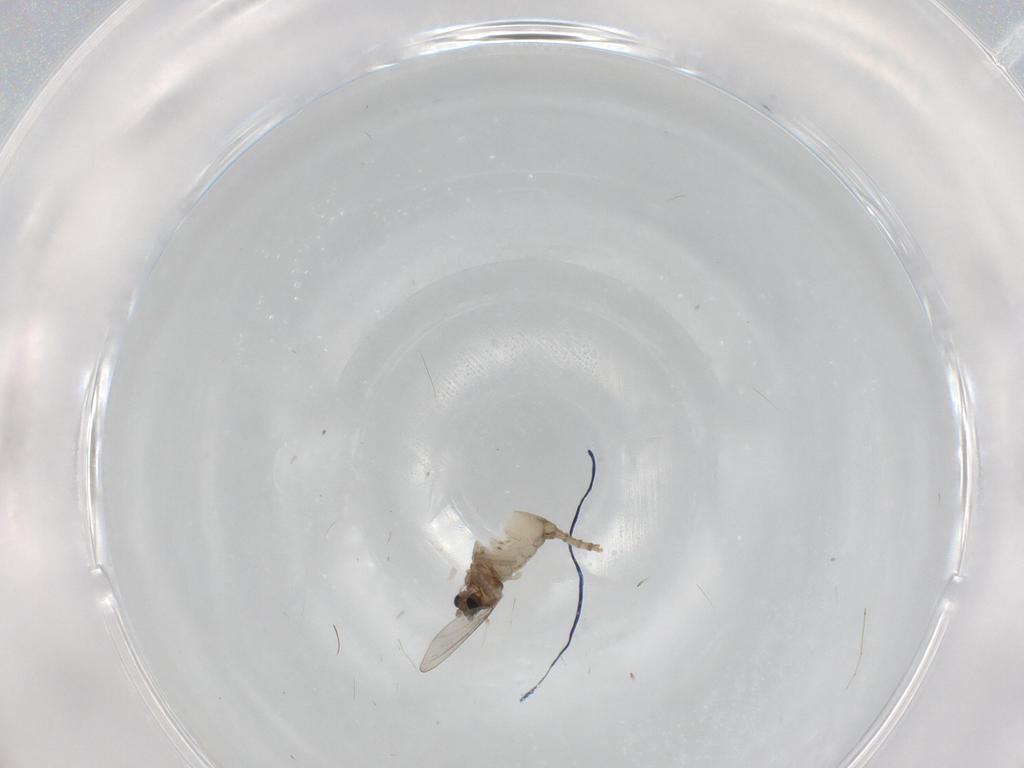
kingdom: Animalia
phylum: Arthropoda
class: Insecta
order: Diptera
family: Cecidomyiidae
